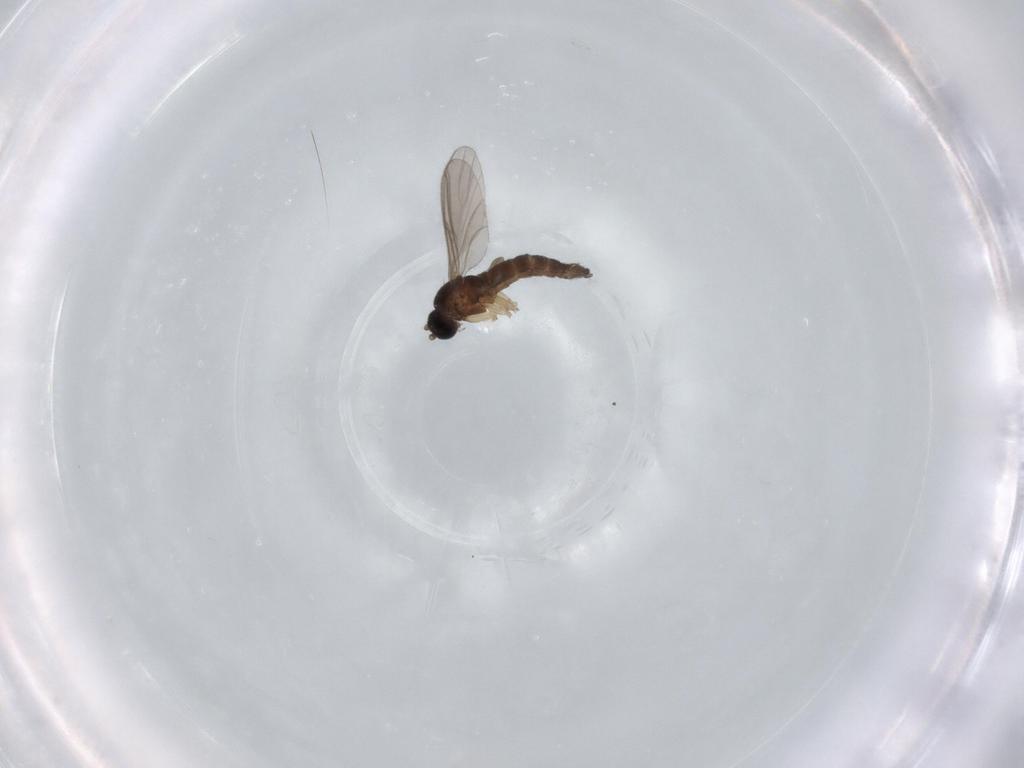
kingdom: Animalia
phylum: Arthropoda
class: Insecta
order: Diptera
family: Sciaridae
